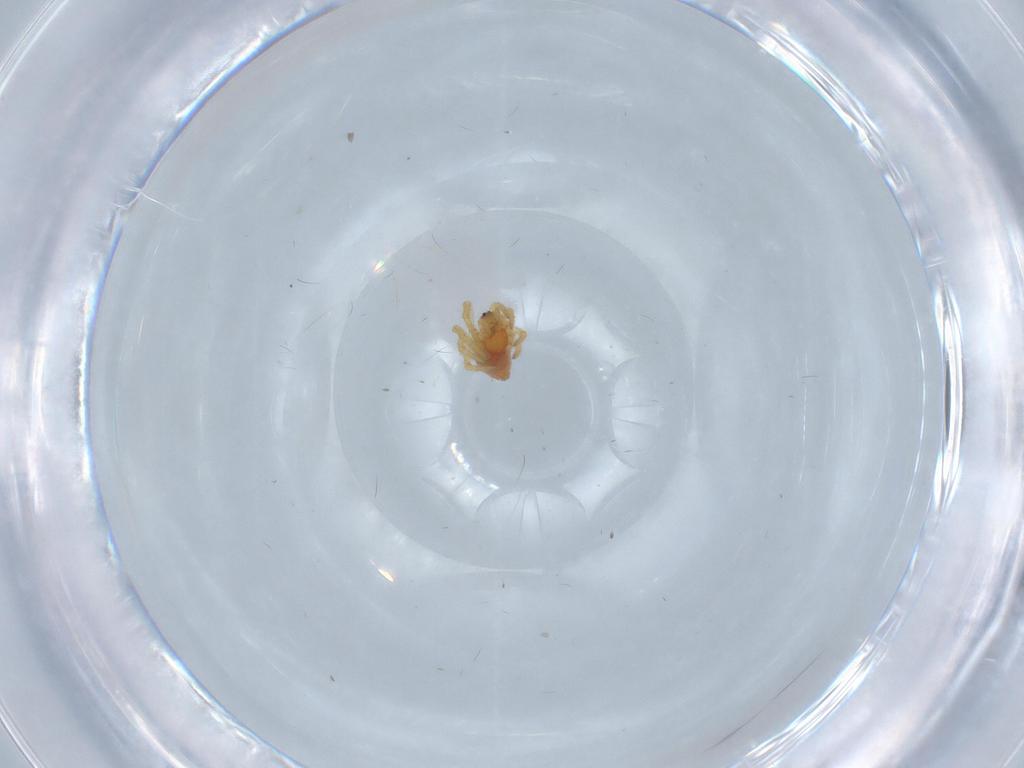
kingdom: Animalia
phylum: Arthropoda
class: Arachnida
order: Araneae
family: Theridiidae
